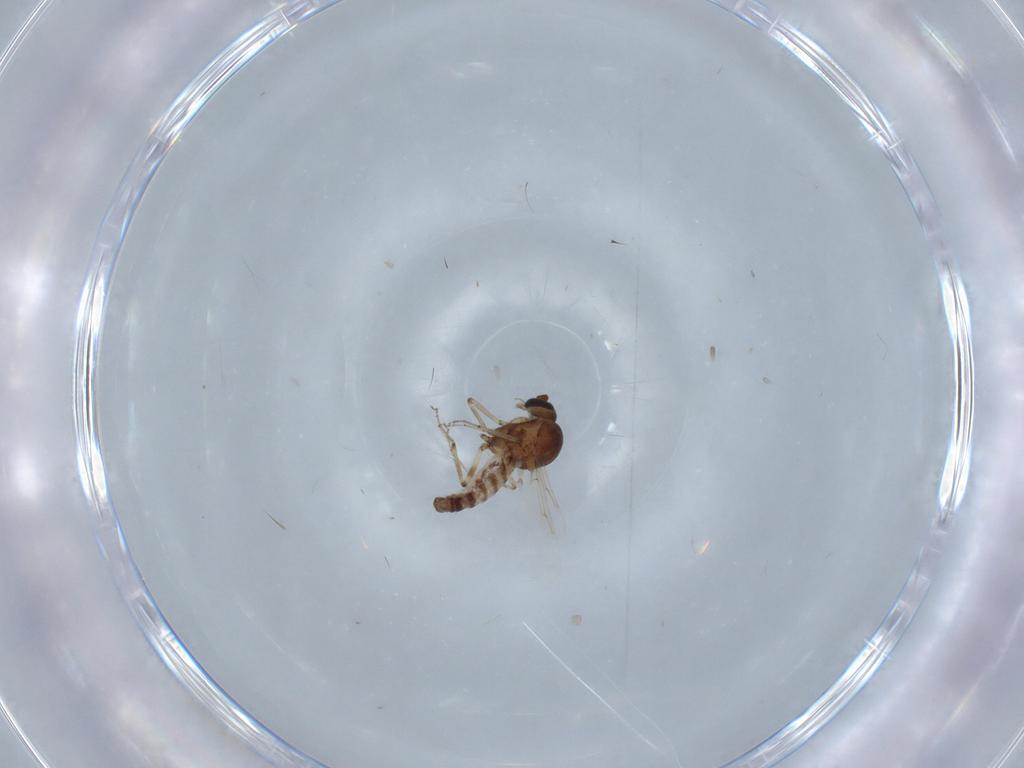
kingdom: Animalia
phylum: Arthropoda
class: Insecta
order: Diptera
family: Ceratopogonidae
